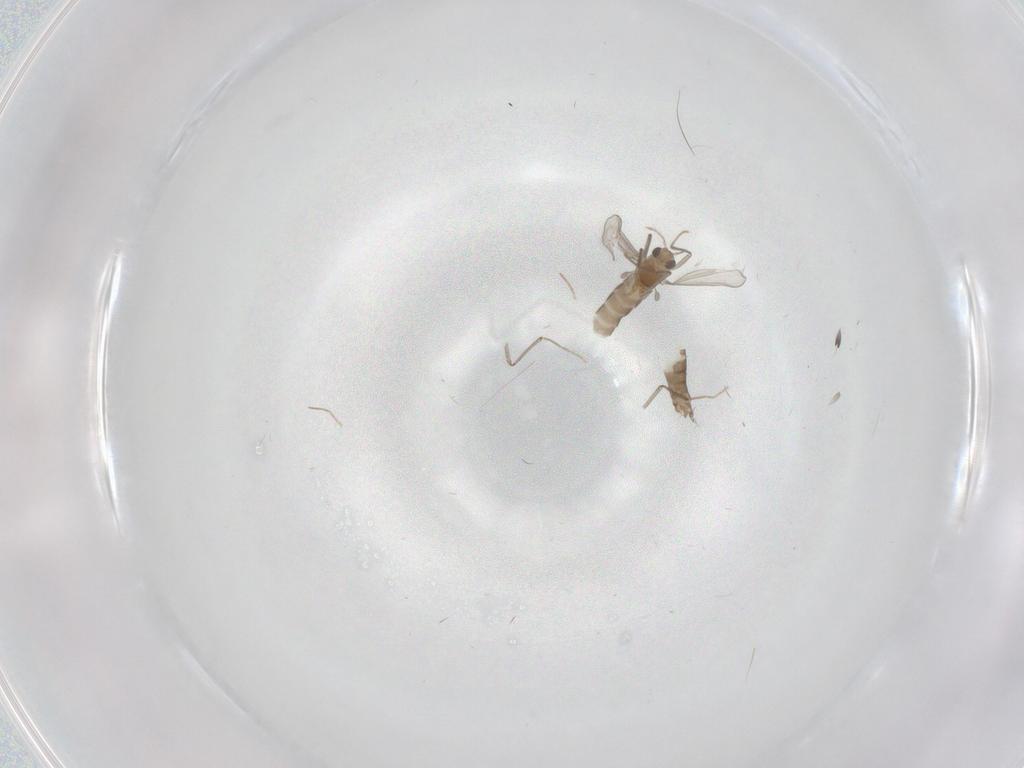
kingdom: Animalia
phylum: Arthropoda
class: Insecta
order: Diptera
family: Chironomidae
